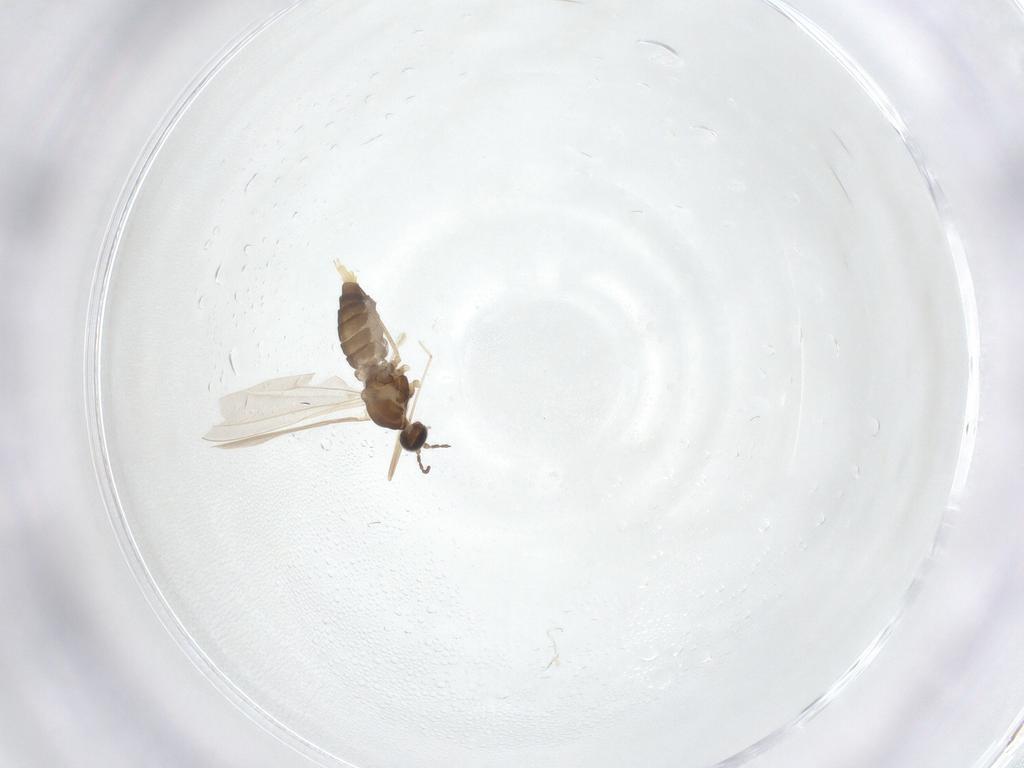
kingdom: Animalia
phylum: Arthropoda
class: Insecta
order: Diptera
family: Cecidomyiidae
